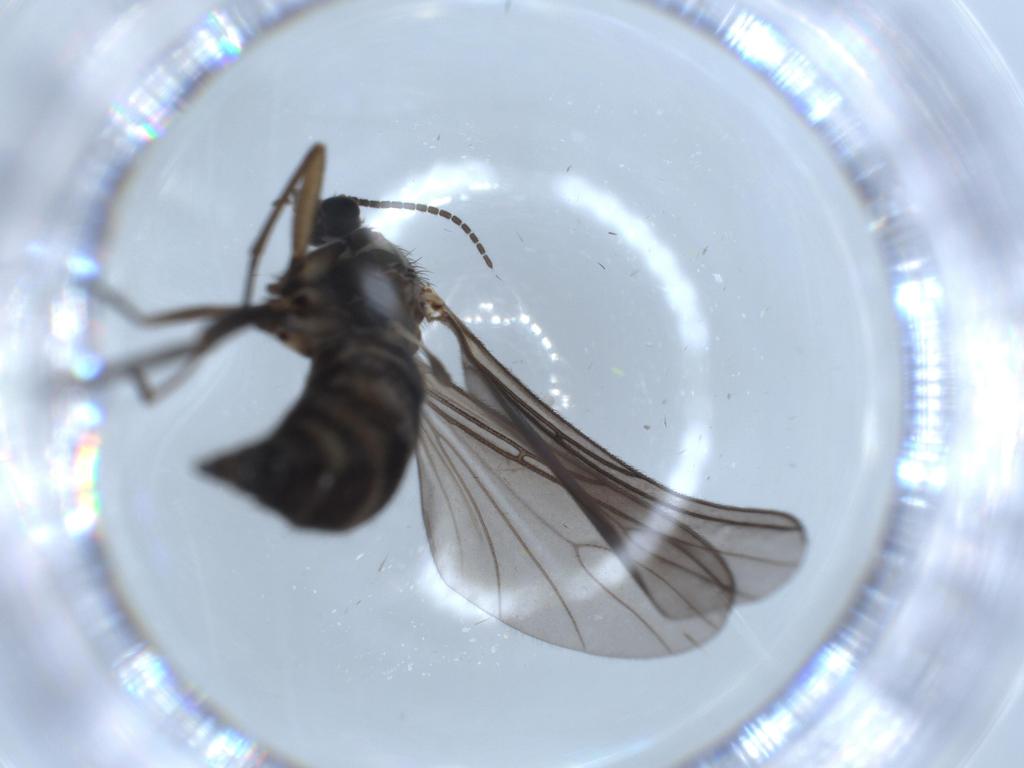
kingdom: Animalia
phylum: Arthropoda
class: Insecta
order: Diptera
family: Sciaridae
